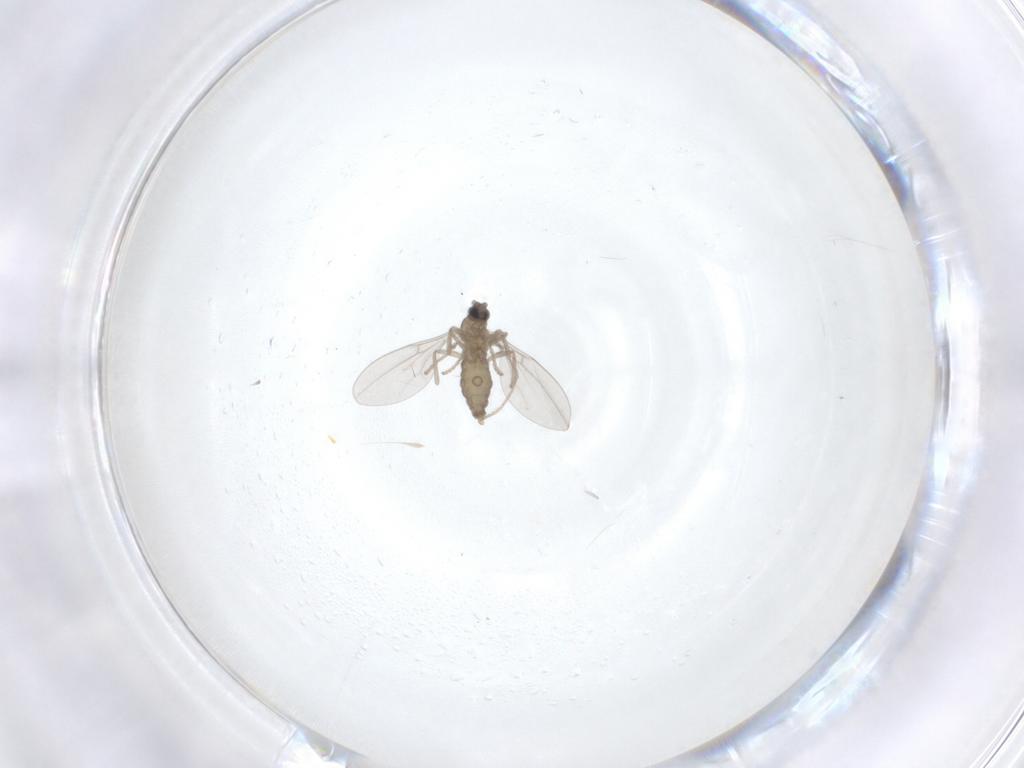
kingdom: Animalia
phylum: Arthropoda
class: Insecta
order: Diptera
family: Cecidomyiidae
